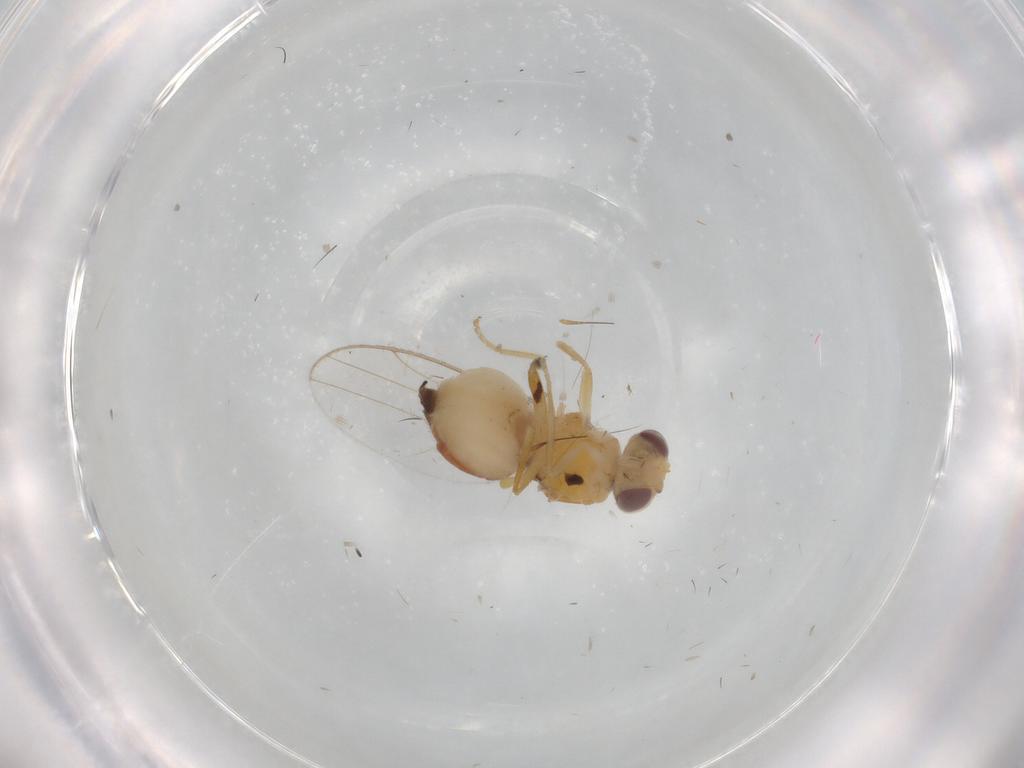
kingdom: Animalia
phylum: Arthropoda
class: Insecta
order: Diptera
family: Chloropidae
